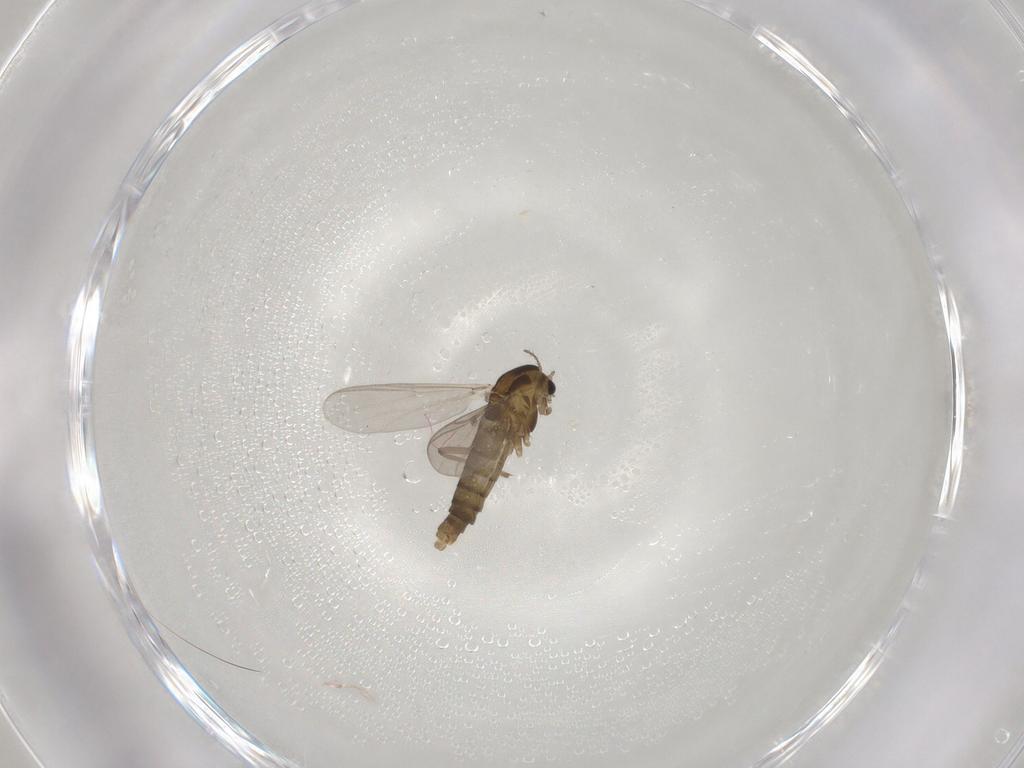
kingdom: Animalia
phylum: Arthropoda
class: Insecta
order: Diptera
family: Chironomidae
